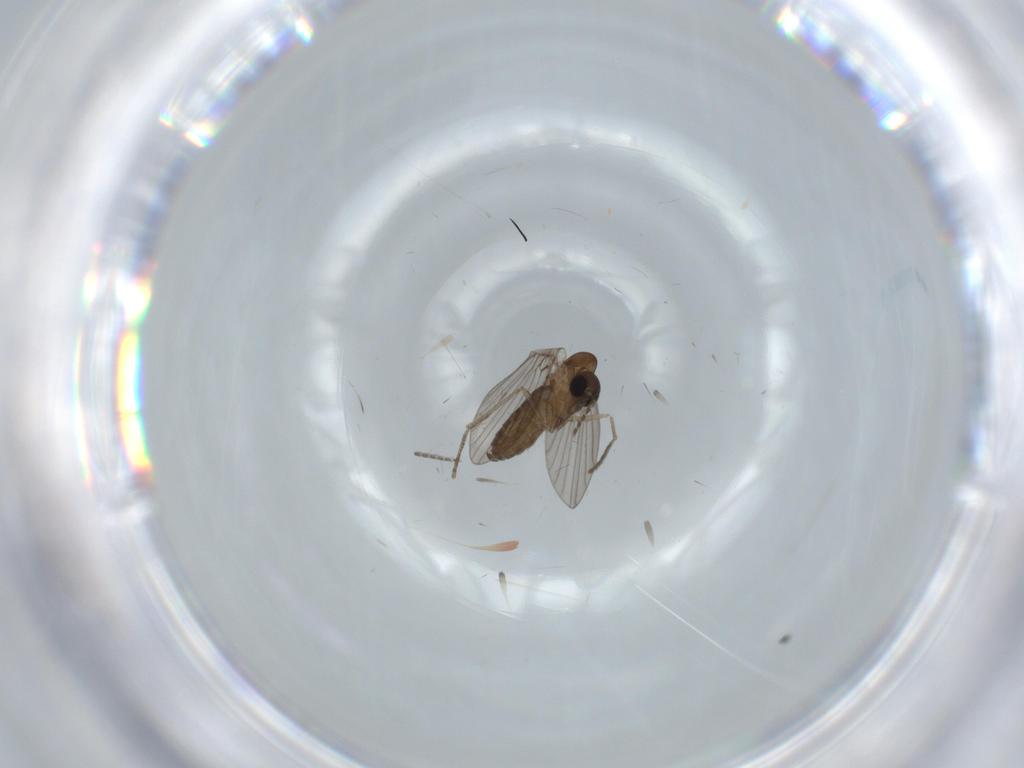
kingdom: Animalia
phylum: Arthropoda
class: Insecta
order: Diptera
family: Psychodidae
